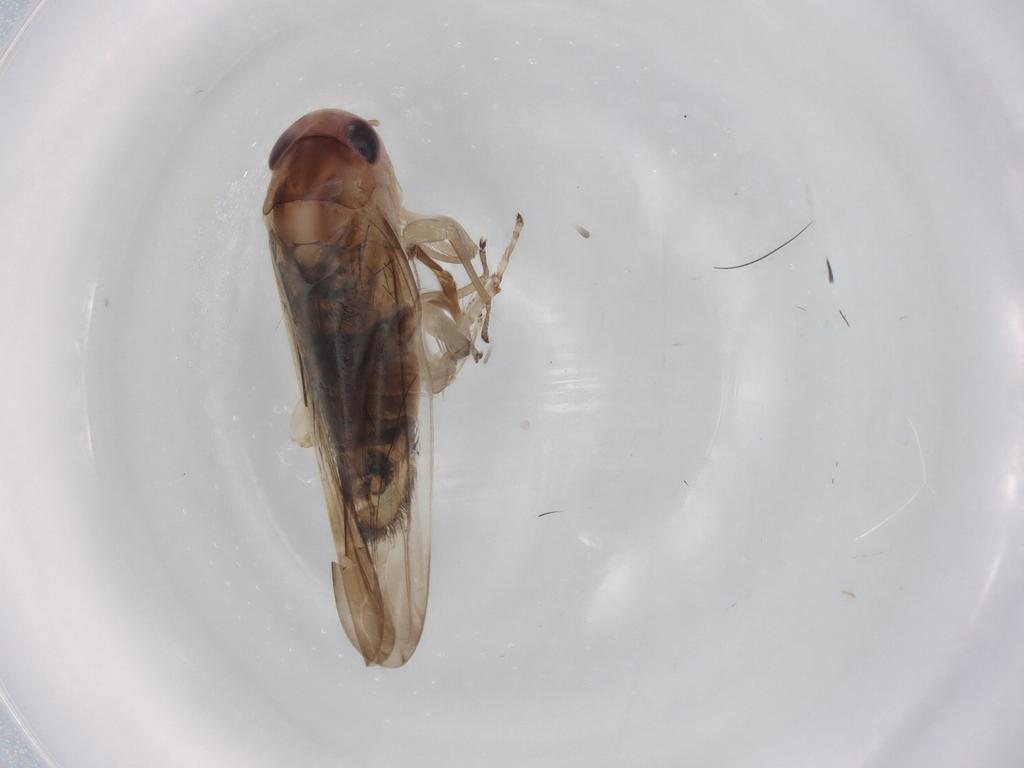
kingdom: Animalia
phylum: Arthropoda
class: Insecta
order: Hemiptera
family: Cicadellidae
